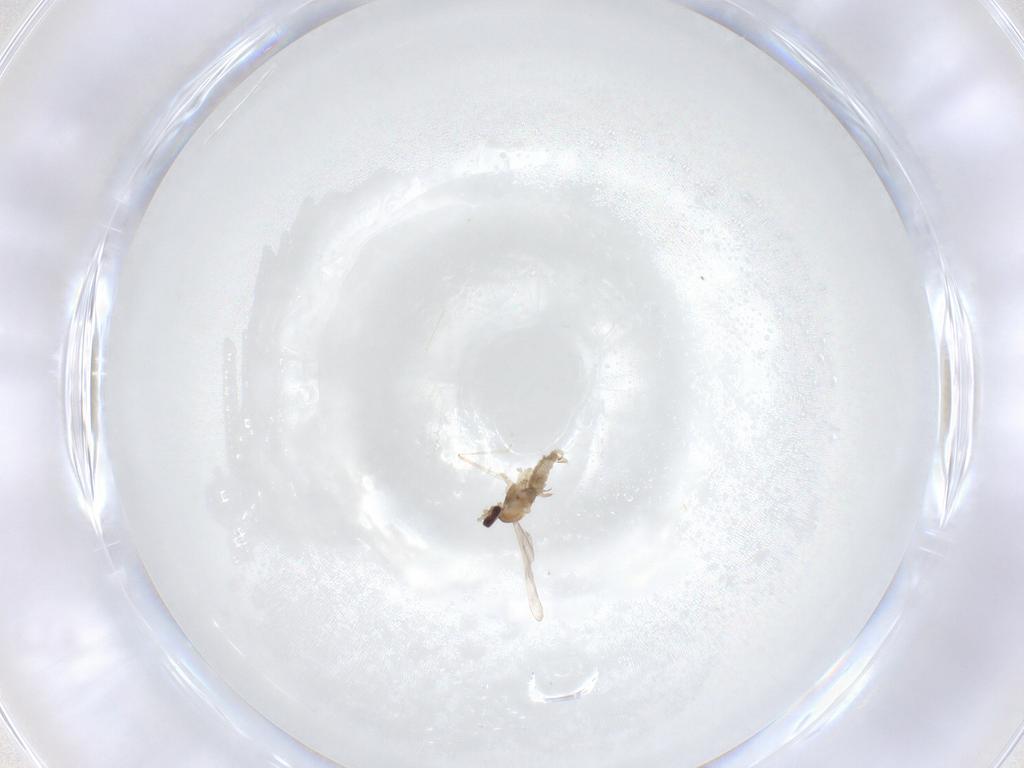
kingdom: Animalia
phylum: Arthropoda
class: Insecta
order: Diptera
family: Cecidomyiidae
